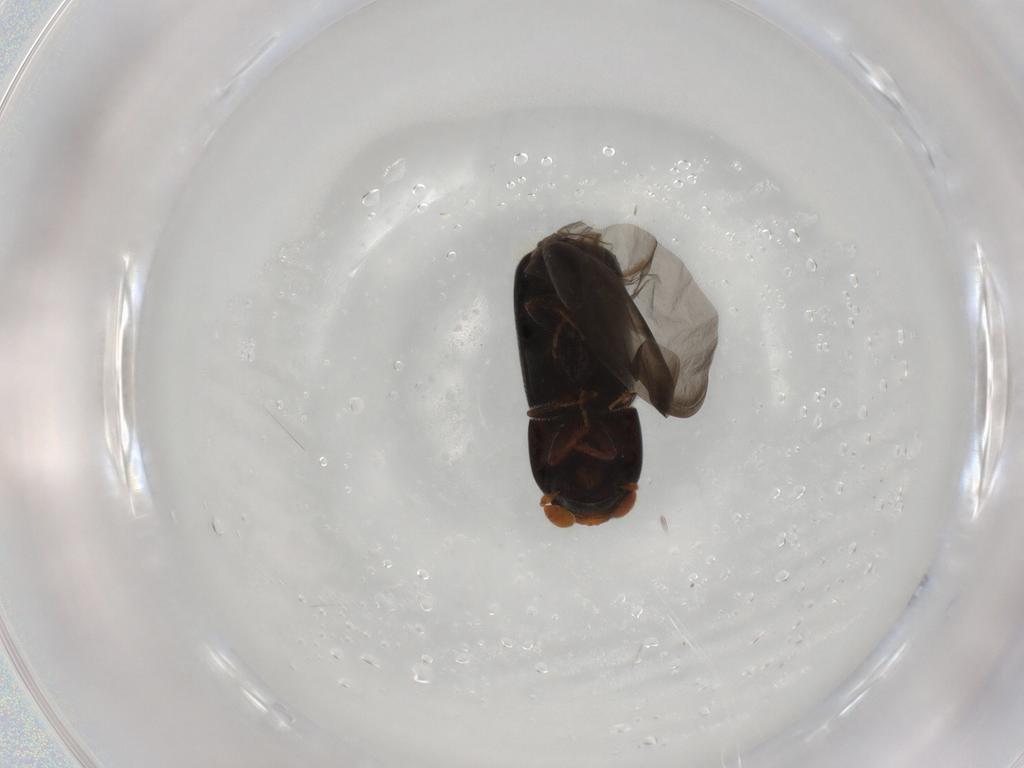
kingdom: Animalia
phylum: Arthropoda
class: Insecta
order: Coleoptera
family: Curculionidae
